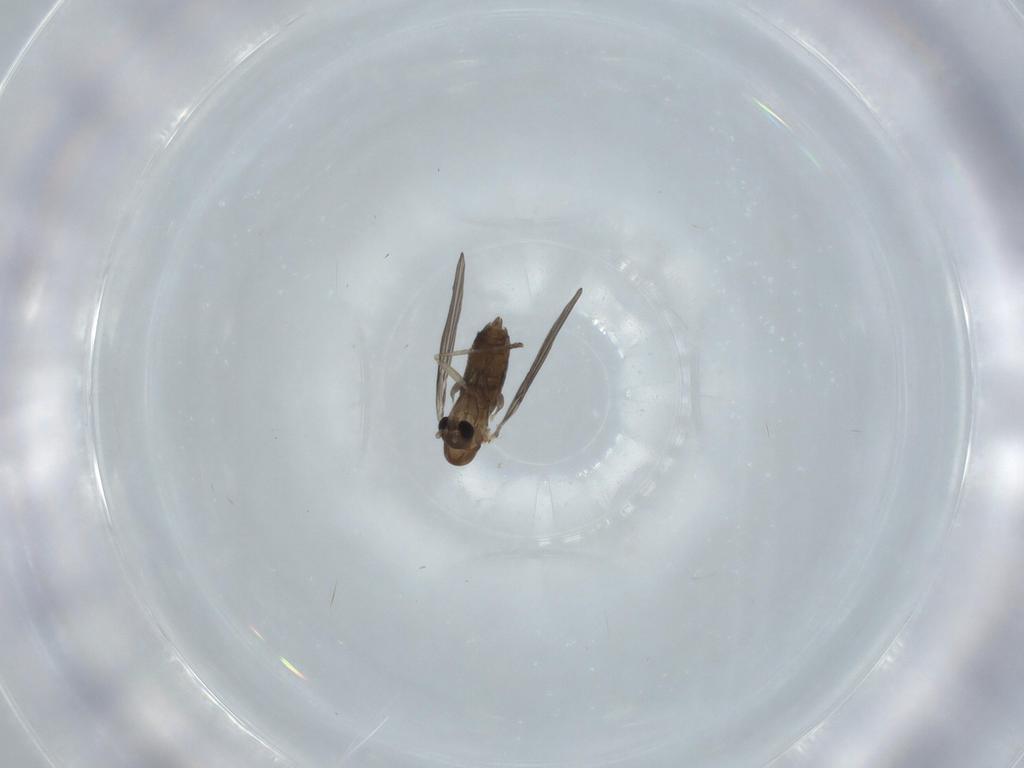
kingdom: Animalia
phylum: Arthropoda
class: Insecta
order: Diptera
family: Psychodidae
